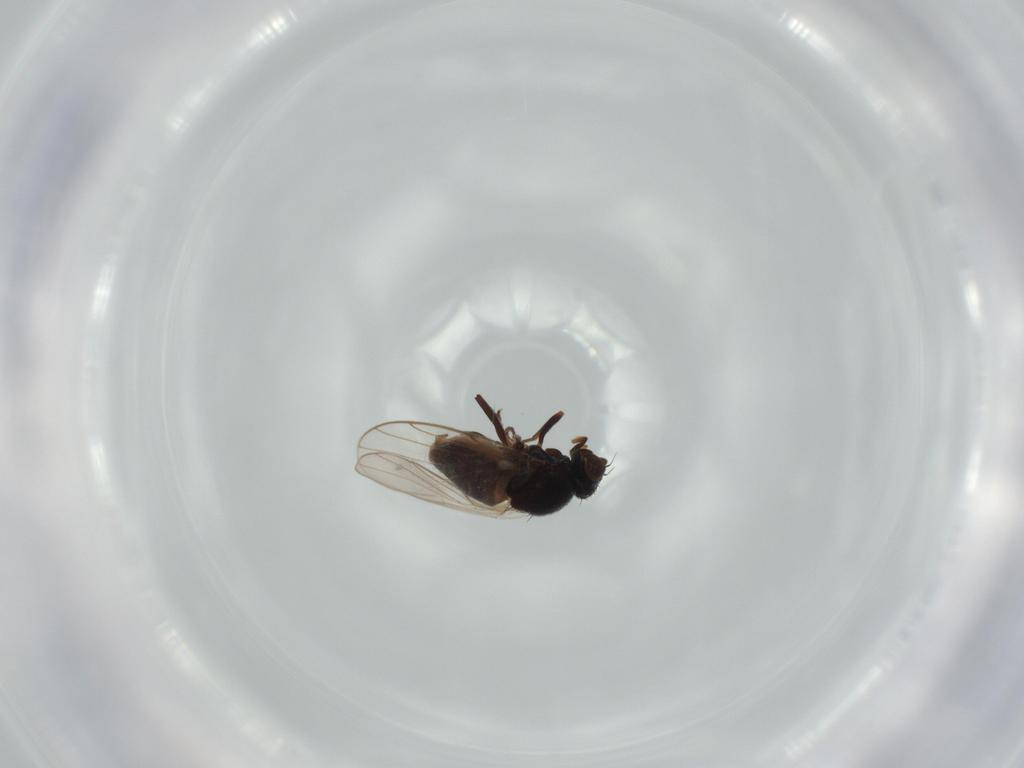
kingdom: Animalia
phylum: Arthropoda
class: Insecta
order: Diptera
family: Chloropidae
